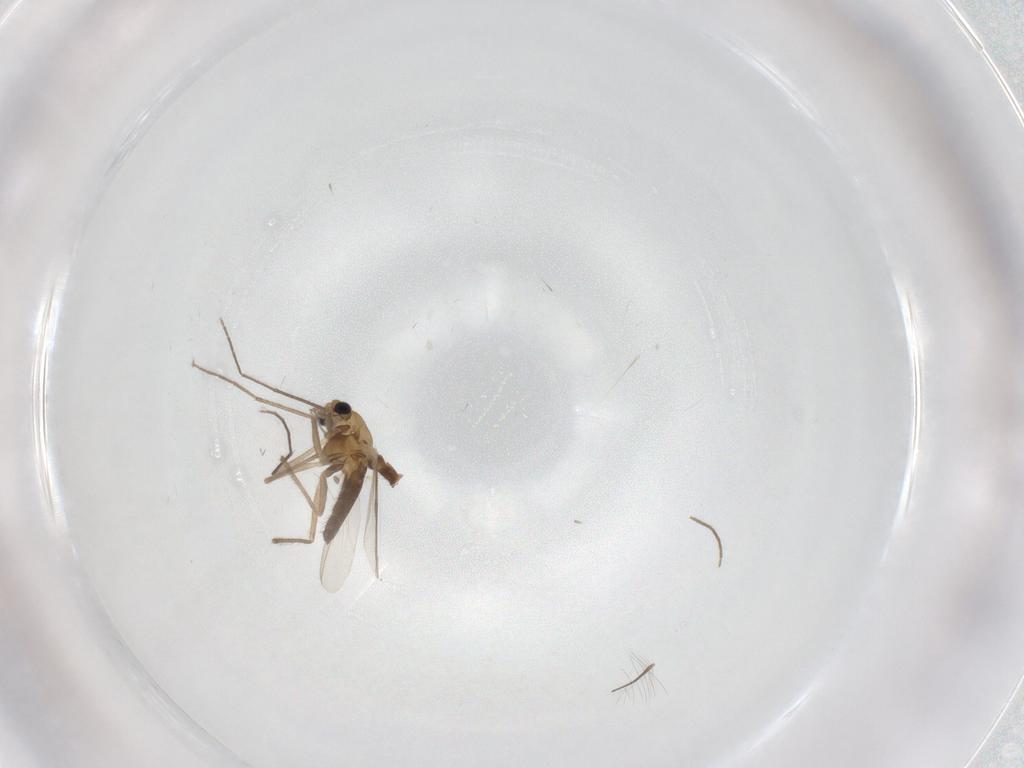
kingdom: Animalia
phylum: Arthropoda
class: Insecta
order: Diptera
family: Chironomidae
